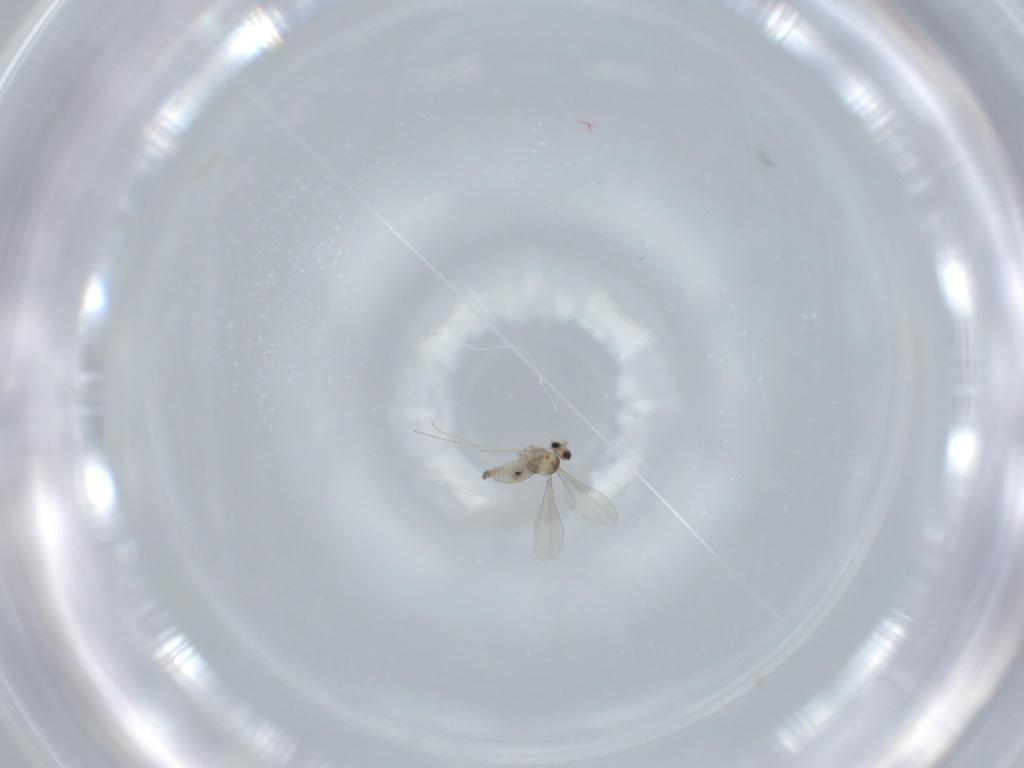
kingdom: Animalia
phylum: Arthropoda
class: Insecta
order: Diptera
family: Cecidomyiidae
